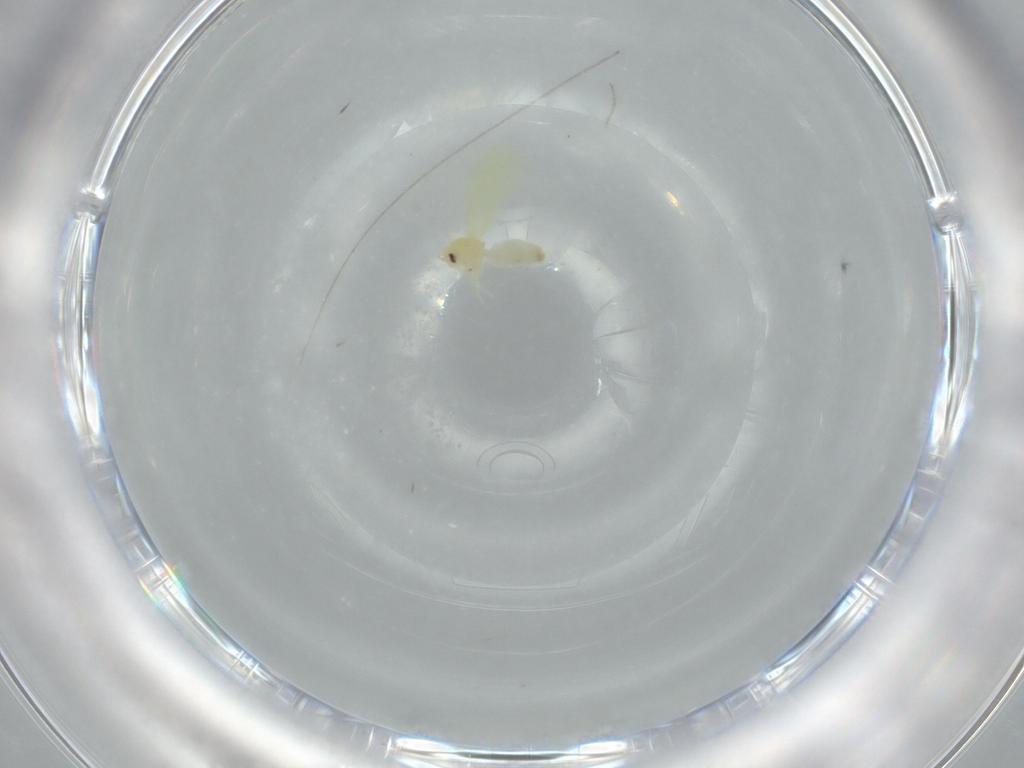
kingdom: Animalia
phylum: Arthropoda
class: Insecta
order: Hemiptera
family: Aleyrodidae
